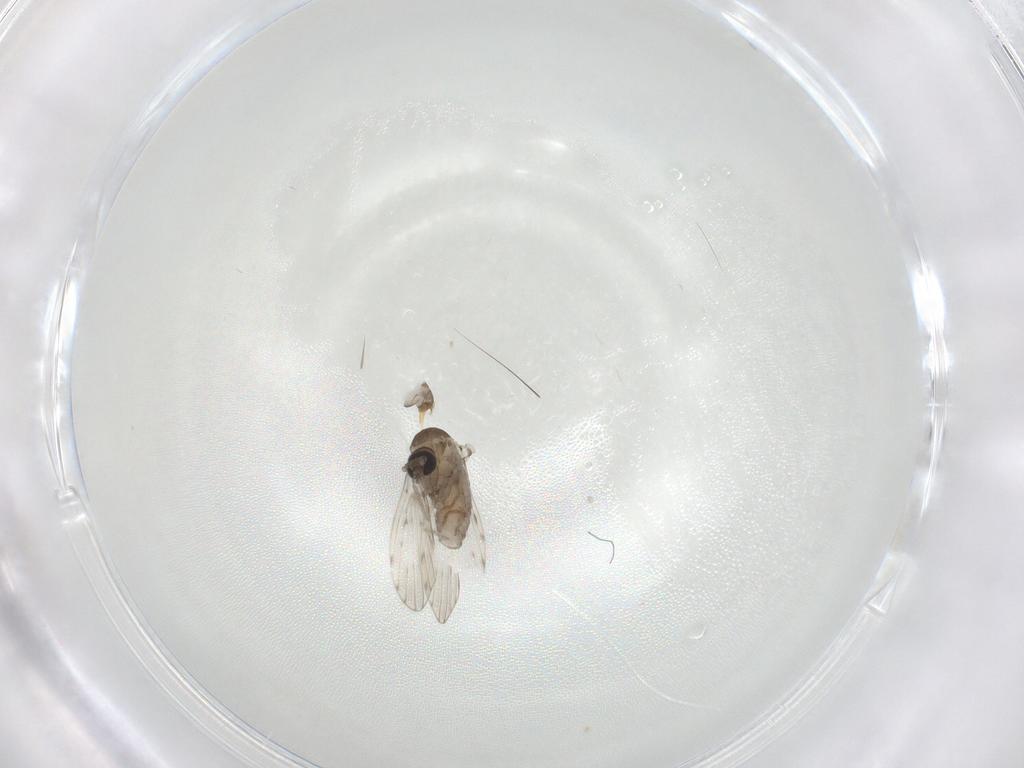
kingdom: Animalia
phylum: Arthropoda
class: Insecta
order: Diptera
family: Psychodidae
